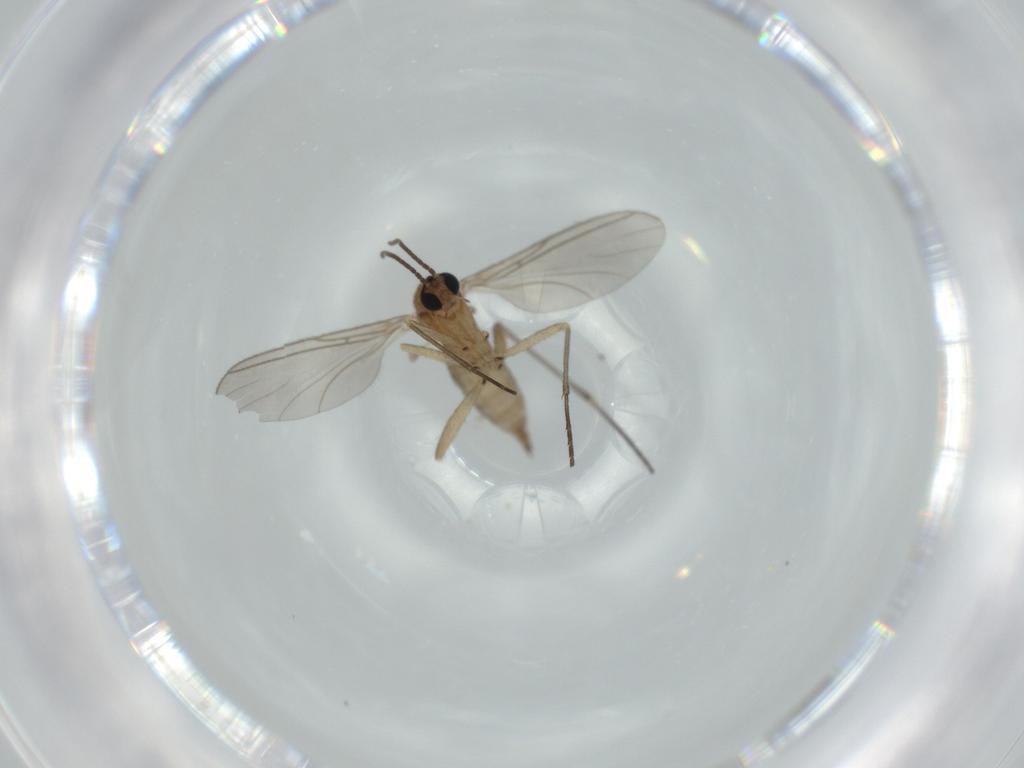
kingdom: Animalia
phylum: Arthropoda
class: Insecta
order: Diptera
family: Sciaridae
